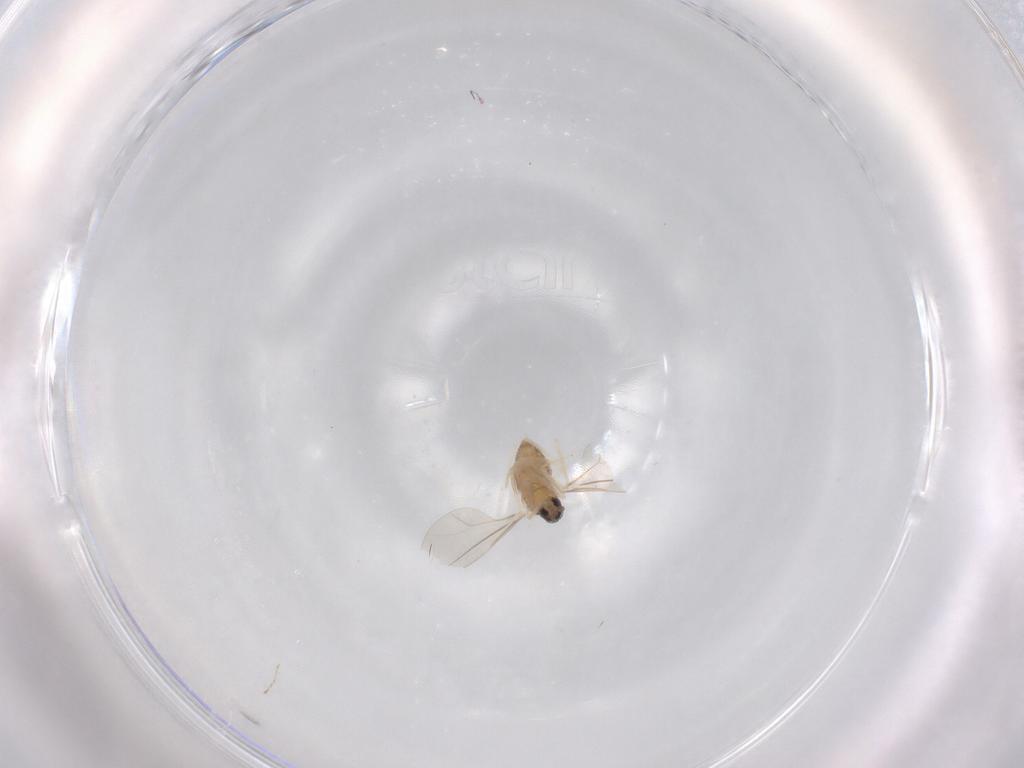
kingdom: Animalia
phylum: Arthropoda
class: Insecta
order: Diptera
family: Cecidomyiidae
